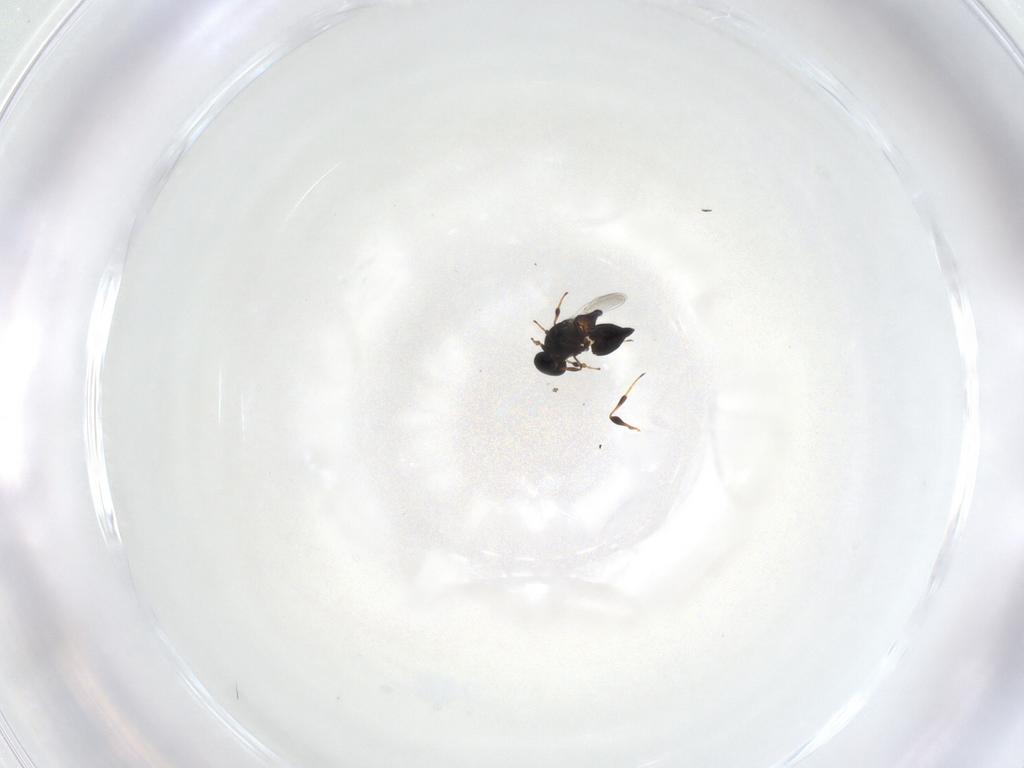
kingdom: Animalia
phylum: Arthropoda
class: Insecta
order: Hymenoptera
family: Platygastridae
